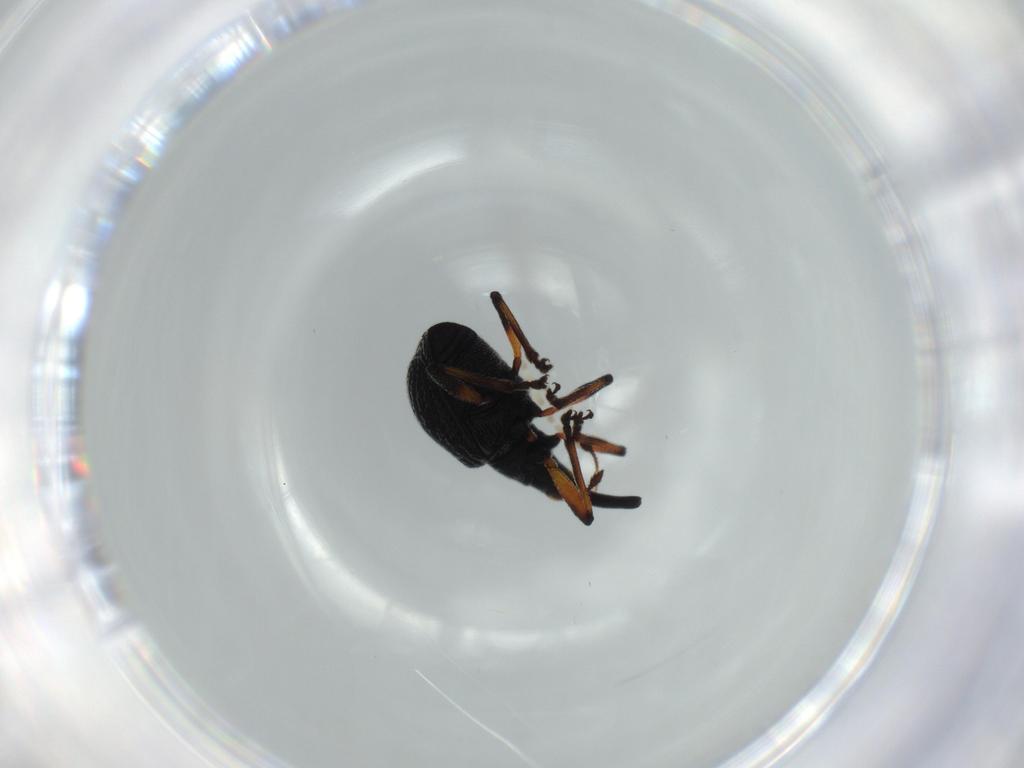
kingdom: Animalia
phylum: Arthropoda
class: Insecta
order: Coleoptera
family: Brentidae
